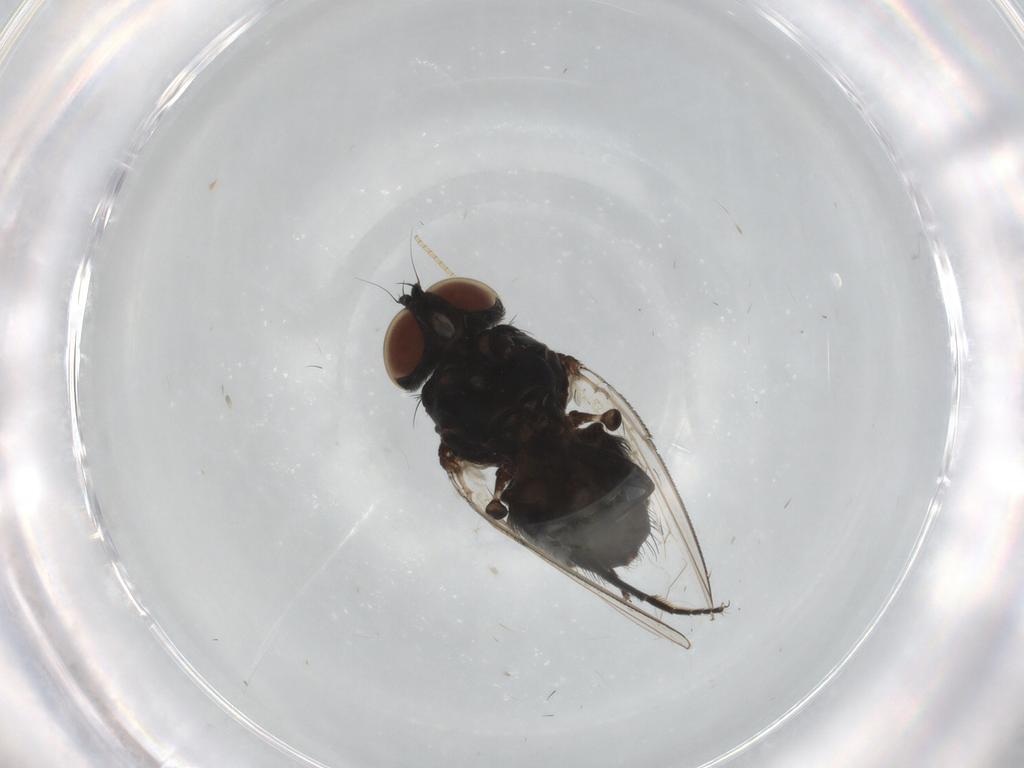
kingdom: Animalia
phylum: Arthropoda
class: Insecta
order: Diptera
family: Milichiidae
